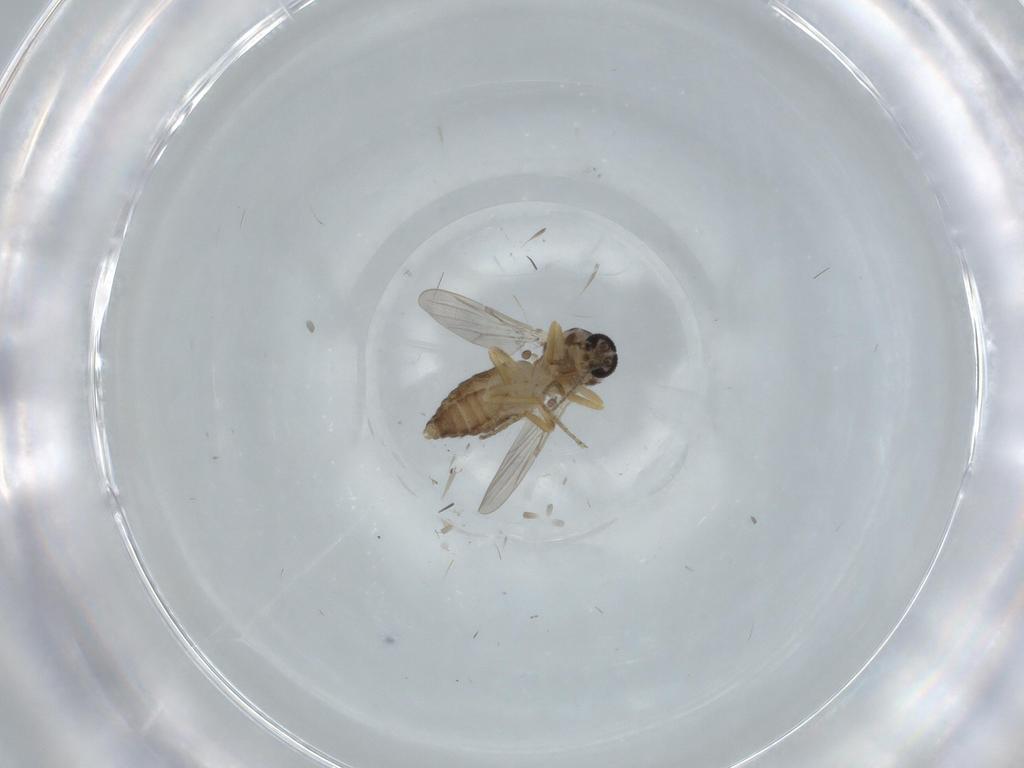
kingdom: Animalia
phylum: Arthropoda
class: Insecta
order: Diptera
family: Ceratopogonidae
